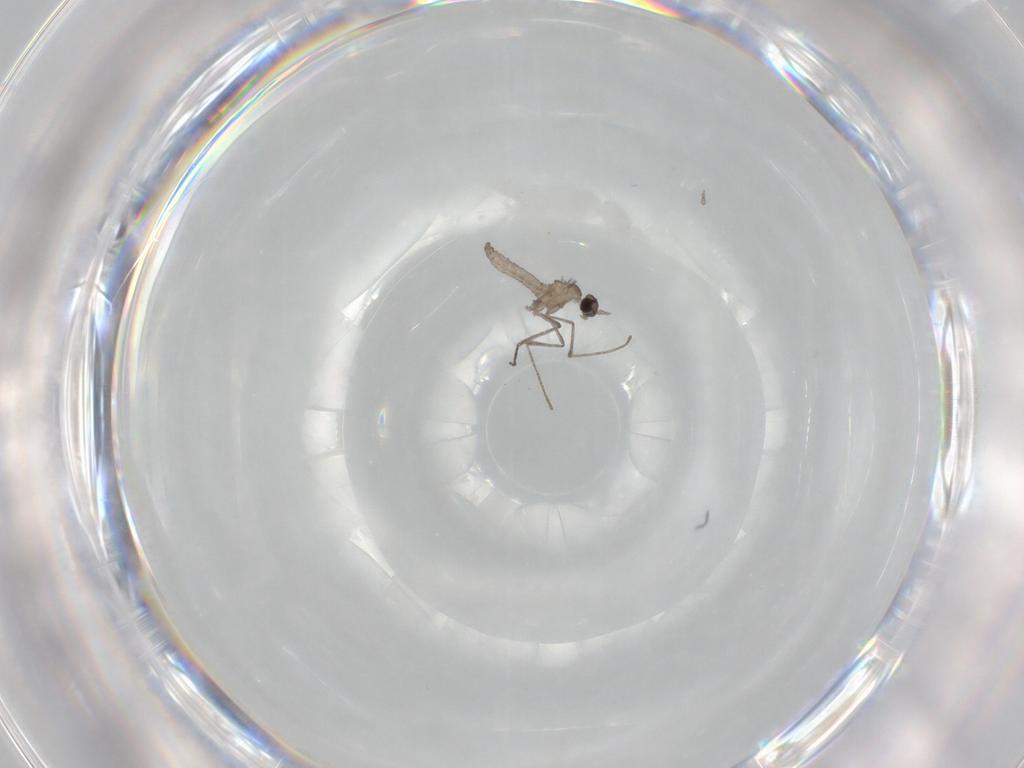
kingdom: Animalia
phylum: Arthropoda
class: Insecta
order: Diptera
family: Cecidomyiidae
